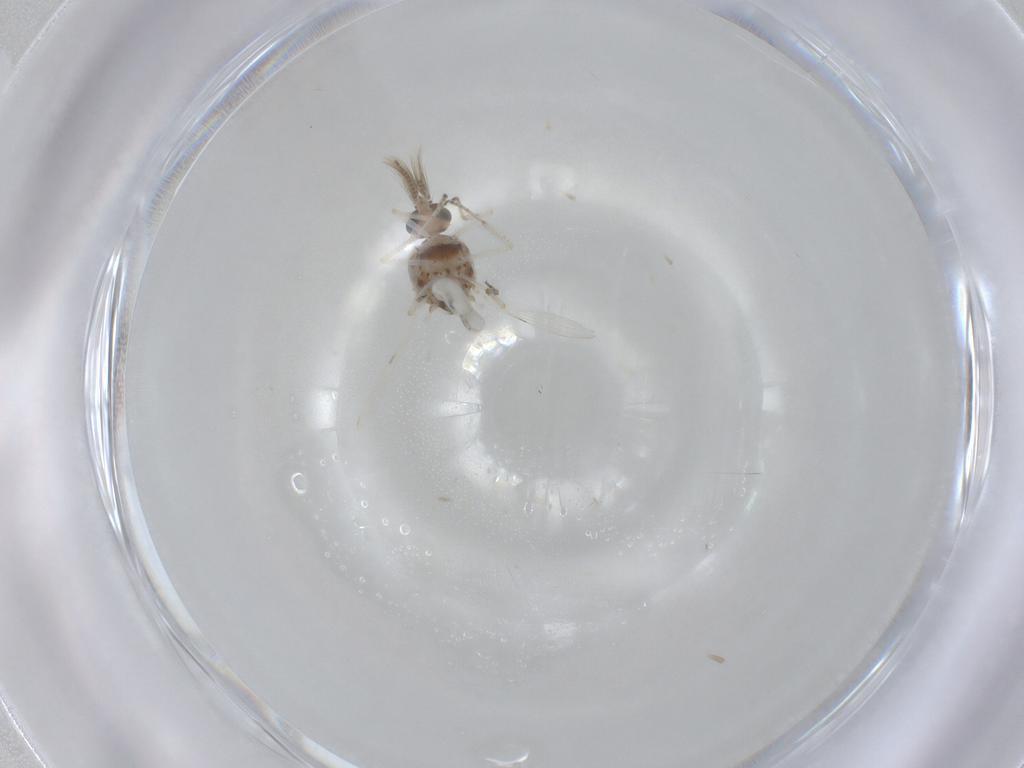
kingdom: Animalia
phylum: Arthropoda
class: Insecta
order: Diptera
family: Ceratopogonidae
